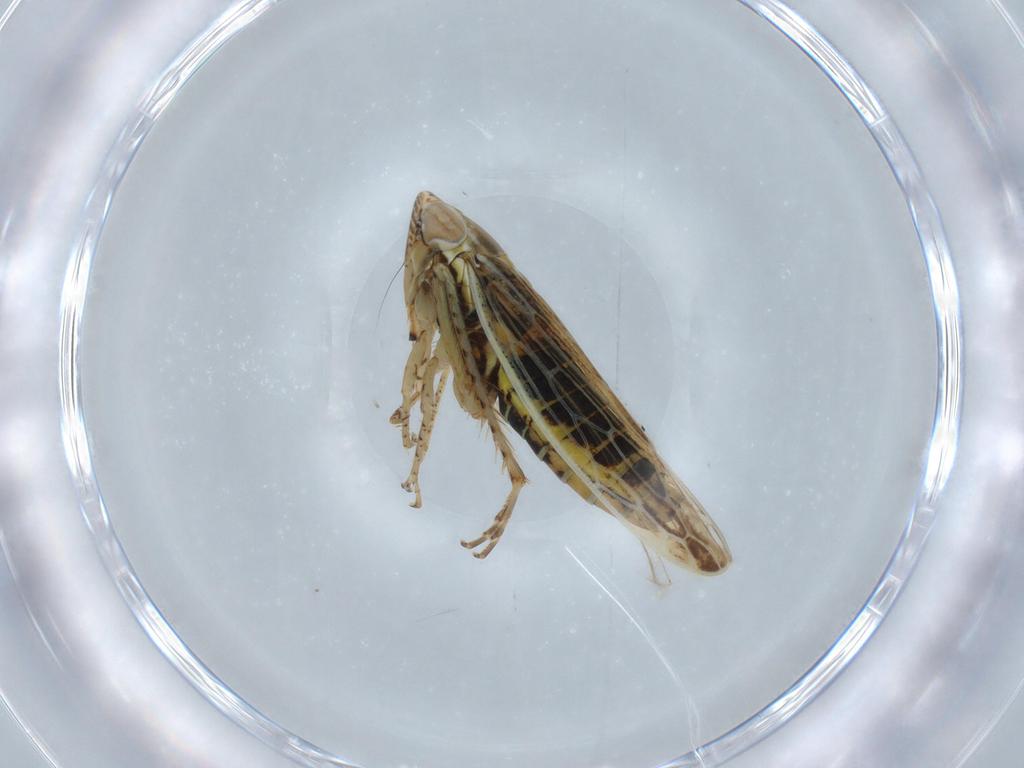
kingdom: Animalia
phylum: Arthropoda
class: Insecta
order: Hemiptera
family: Cicadellidae
